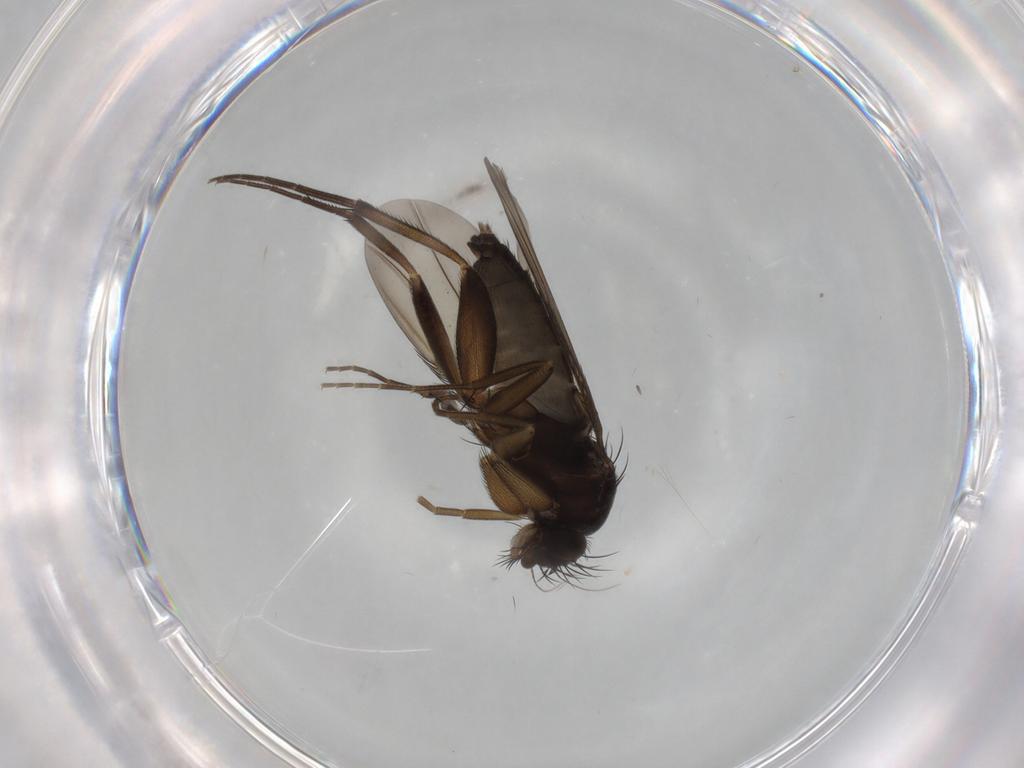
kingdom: Animalia
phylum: Arthropoda
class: Insecta
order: Diptera
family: Phoridae
